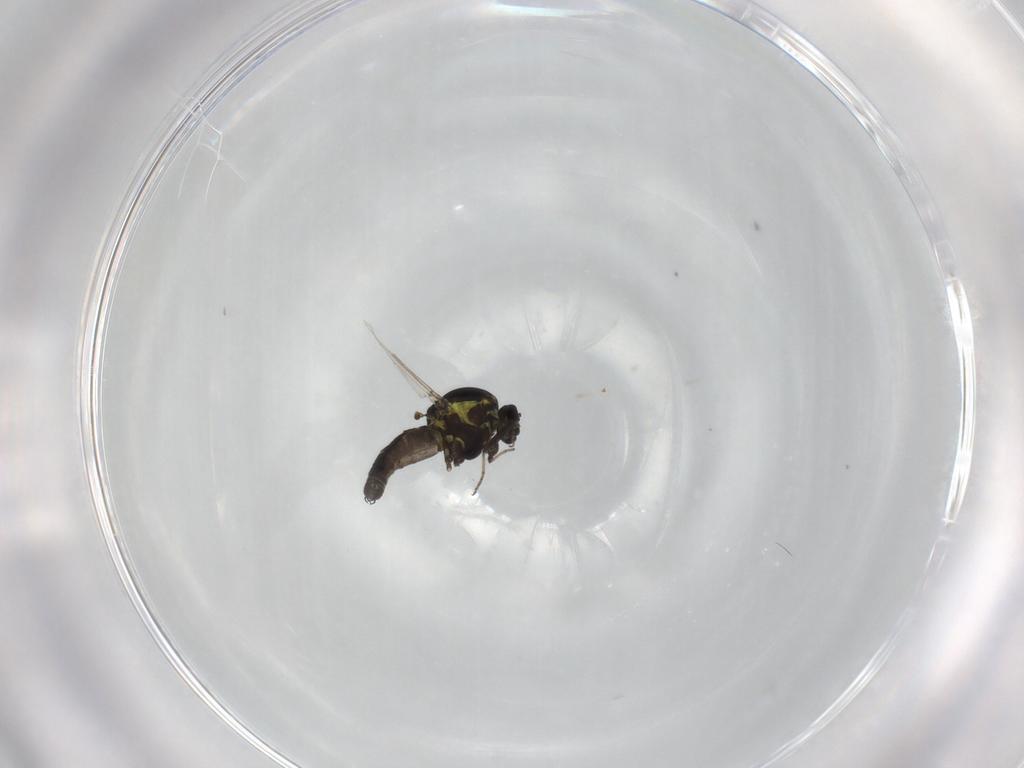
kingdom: Animalia
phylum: Arthropoda
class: Insecta
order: Diptera
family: Ceratopogonidae
